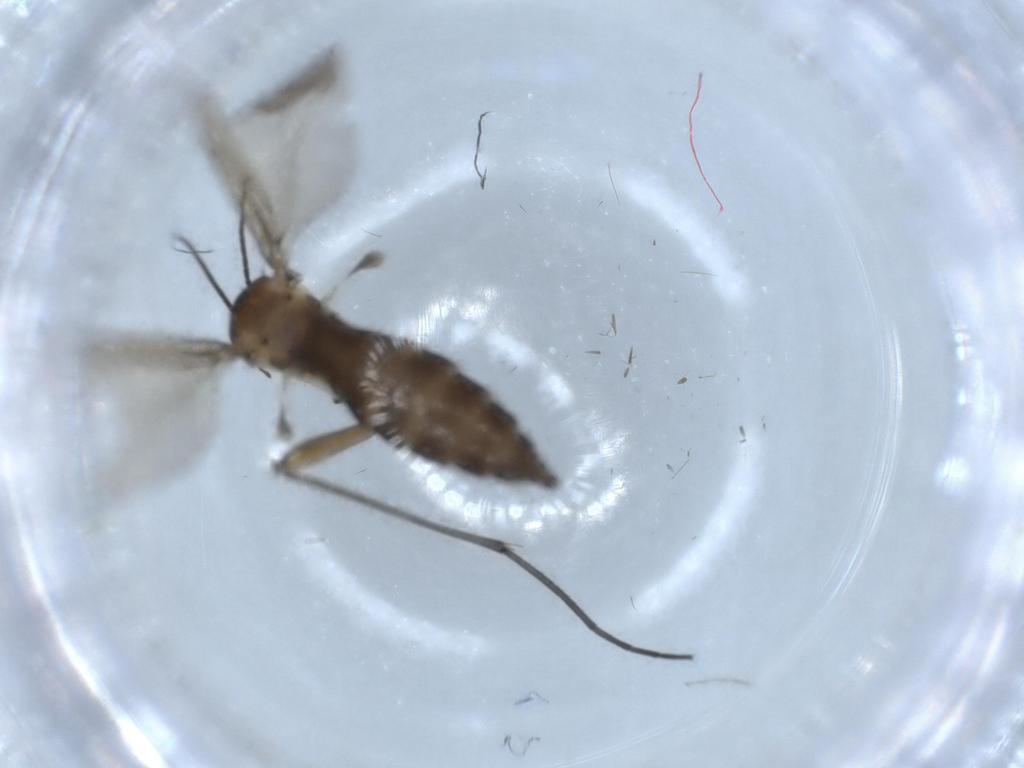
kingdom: Animalia
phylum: Arthropoda
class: Insecta
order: Diptera
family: Sciaridae
